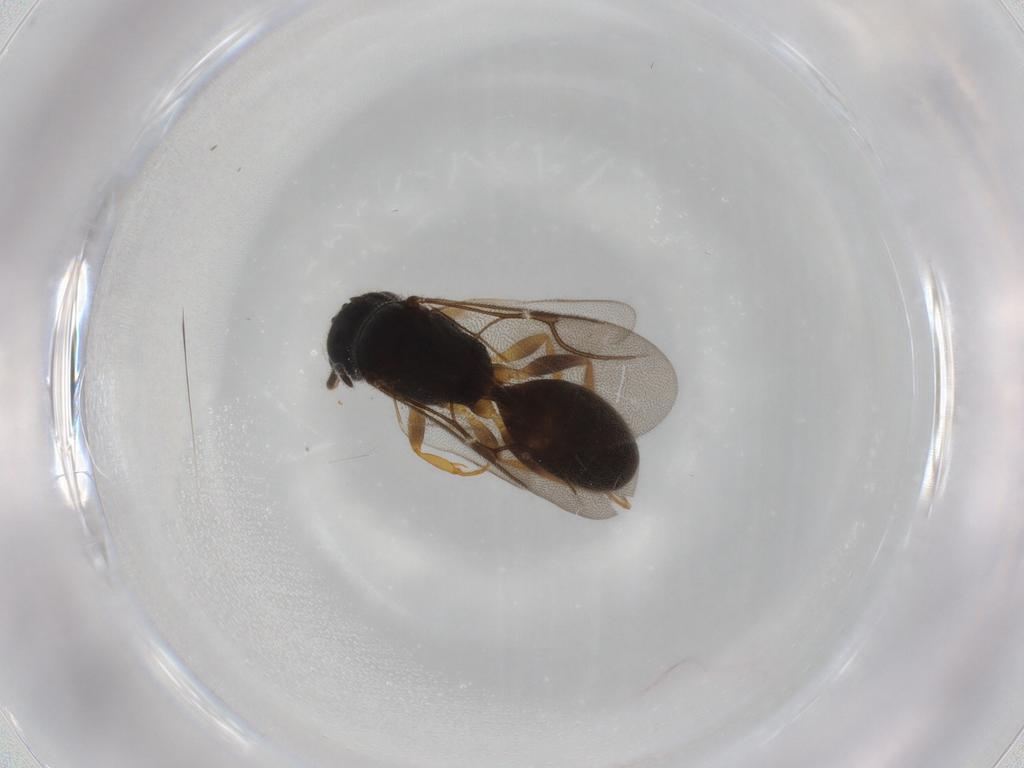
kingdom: Animalia
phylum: Arthropoda
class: Insecta
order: Hymenoptera
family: Bethylidae
